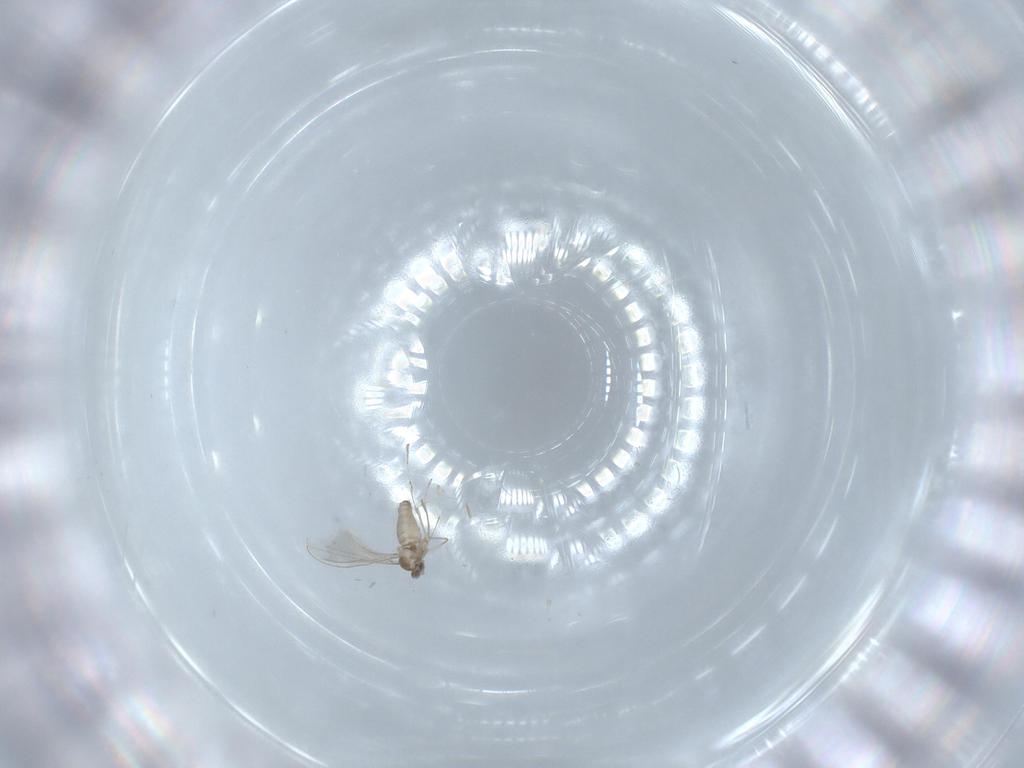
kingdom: Animalia
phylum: Arthropoda
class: Insecta
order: Diptera
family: Cecidomyiidae
